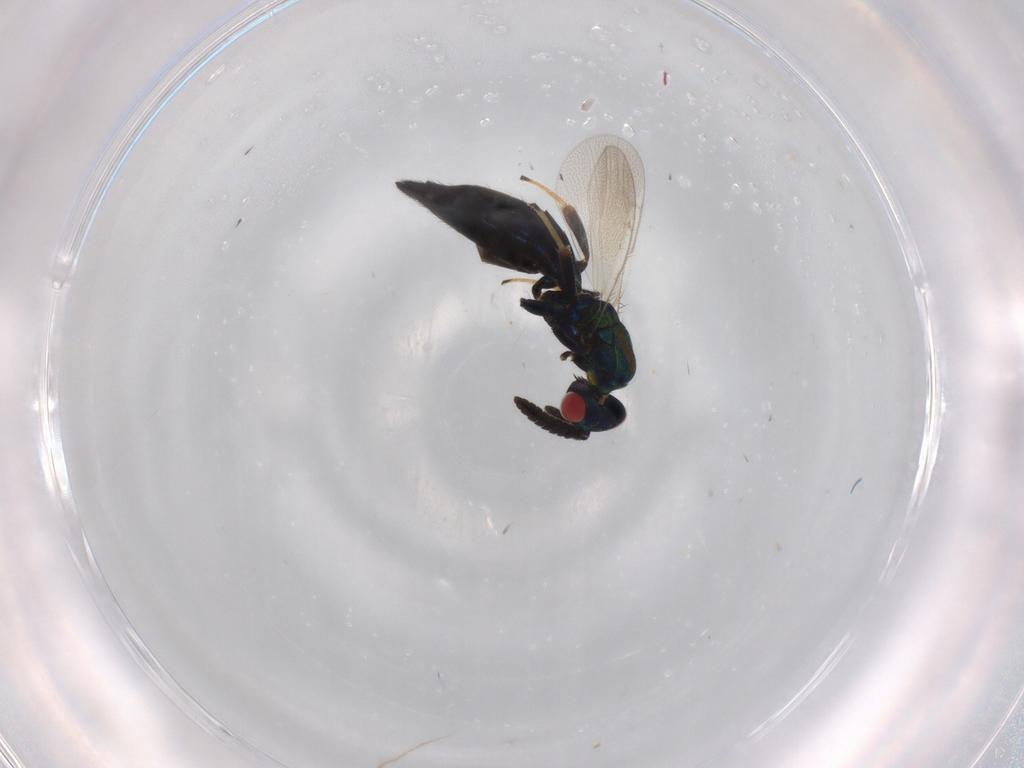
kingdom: Animalia
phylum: Arthropoda
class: Insecta
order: Hymenoptera
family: Pteromalidae
